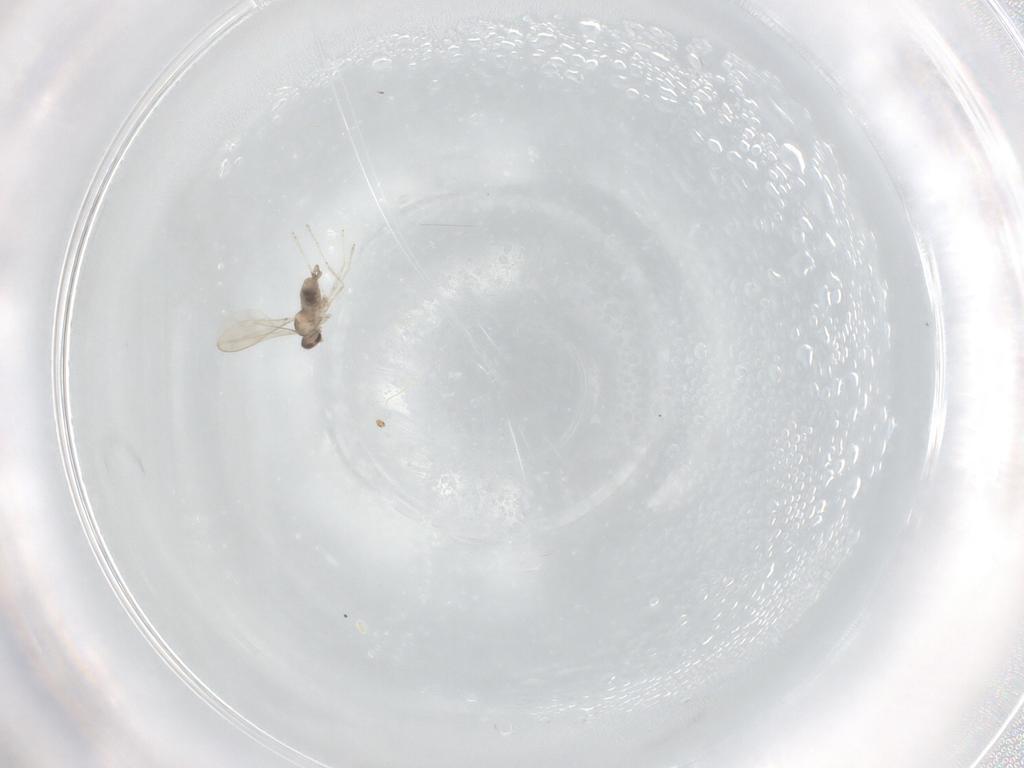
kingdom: Animalia
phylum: Arthropoda
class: Insecta
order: Diptera
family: Cecidomyiidae
